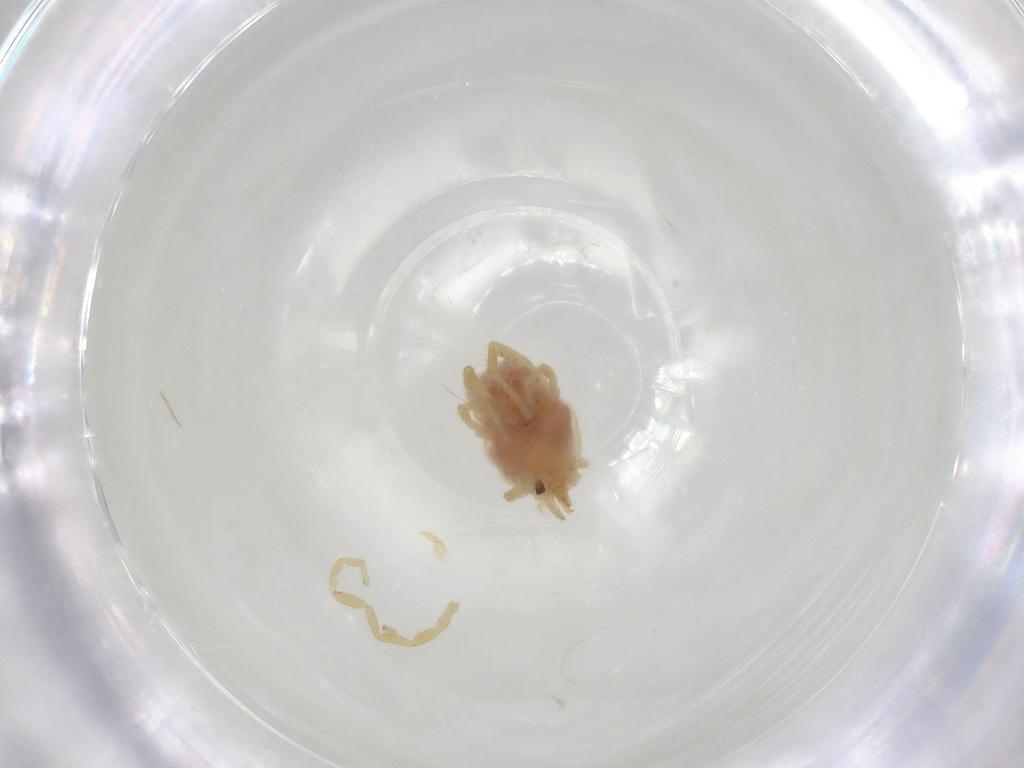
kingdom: Animalia
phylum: Arthropoda
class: Arachnida
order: Trombidiformes
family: Erythraeidae
